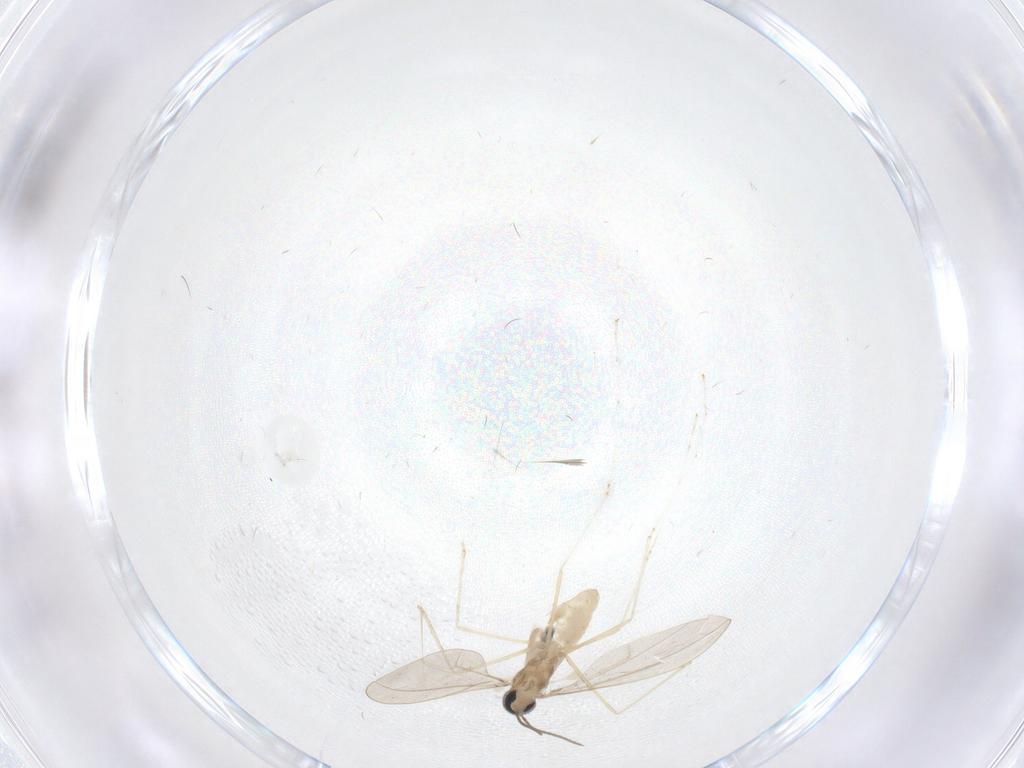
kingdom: Animalia
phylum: Arthropoda
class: Insecta
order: Diptera
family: Cecidomyiidae
